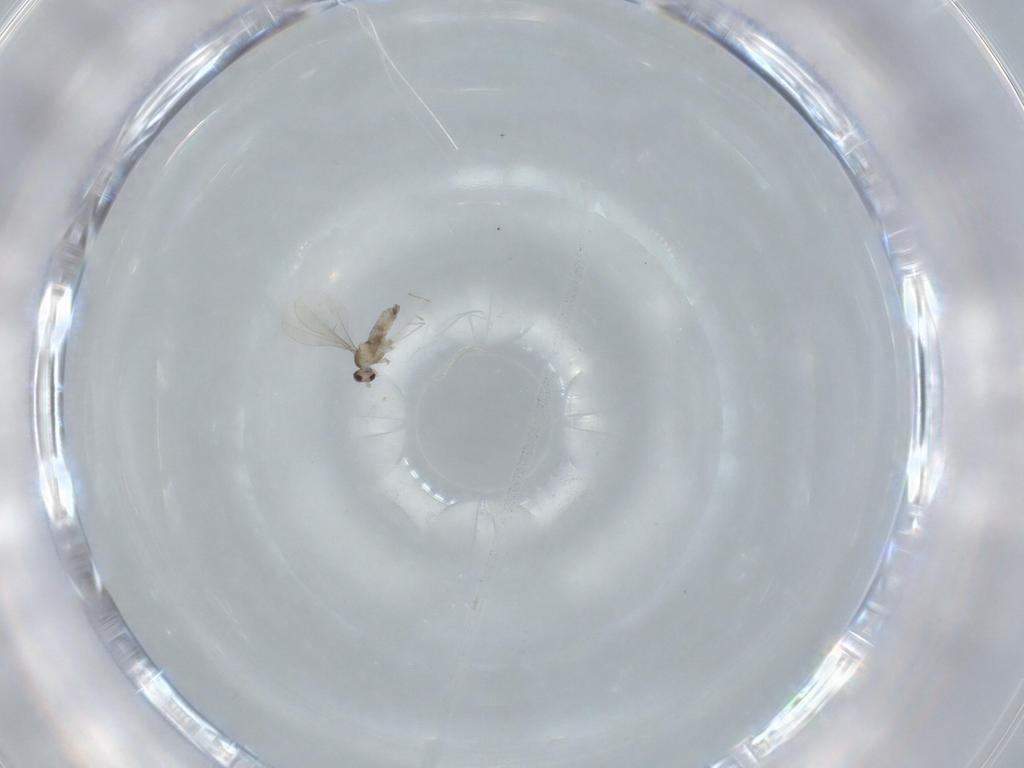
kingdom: Animalia
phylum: Arthropoda
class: Insecta
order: Diptera
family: Cecidomyiidae
